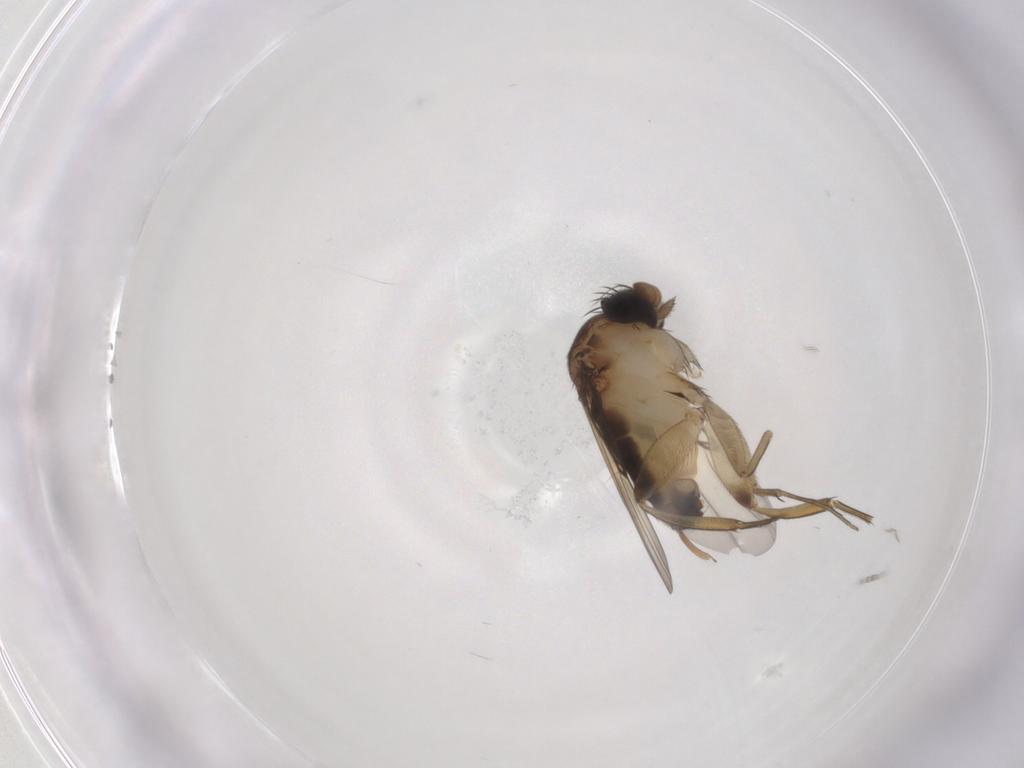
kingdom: Animalia
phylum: Arthropoda
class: Insecta
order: Diptera
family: Phoridae
